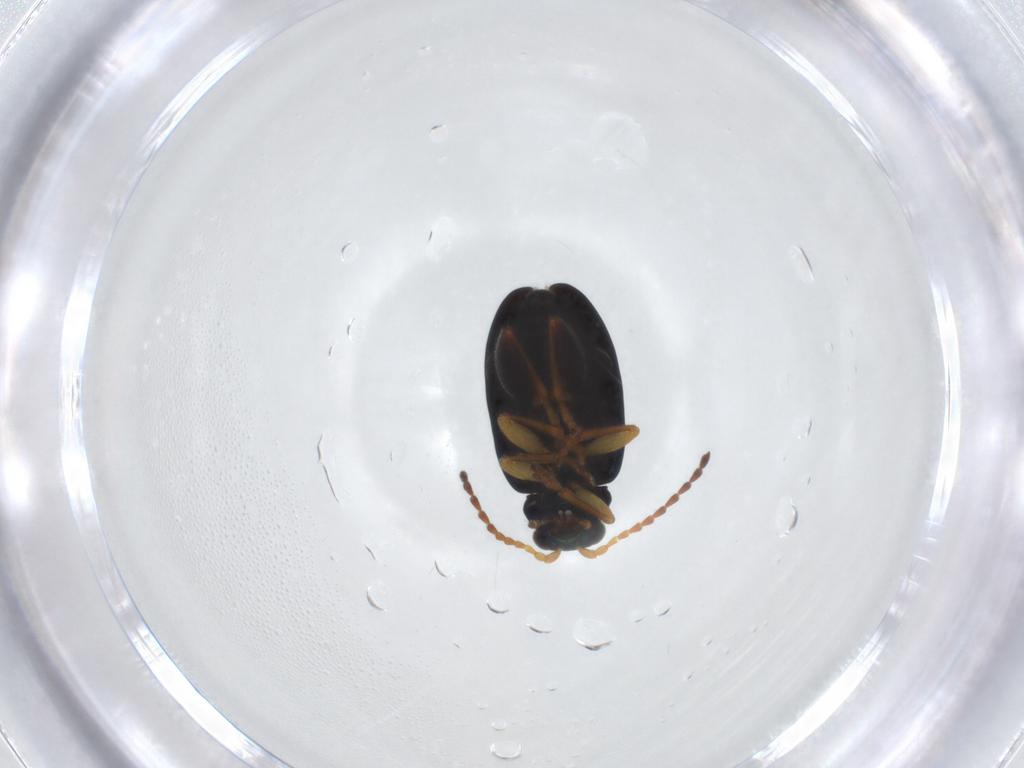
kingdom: Animalia
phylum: Arthropoda
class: Insecta
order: Coleoptera
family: Chrysomelidae
